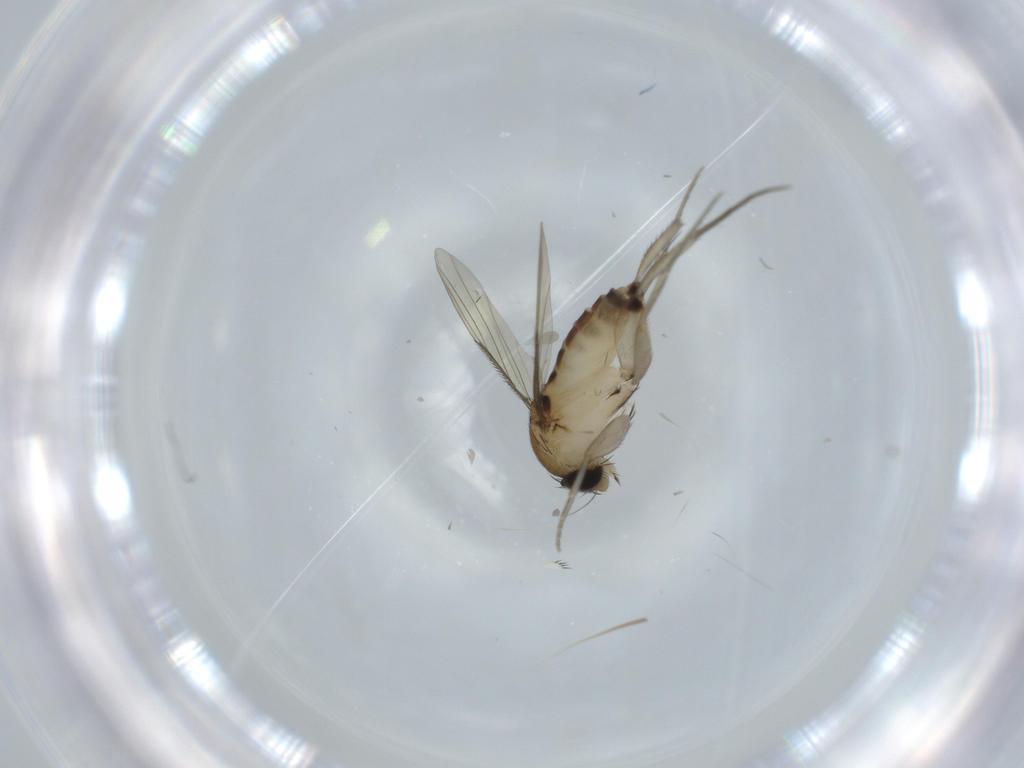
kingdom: Animalia
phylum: Arthropoda
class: Insecta
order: Diptera
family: Phoridae
